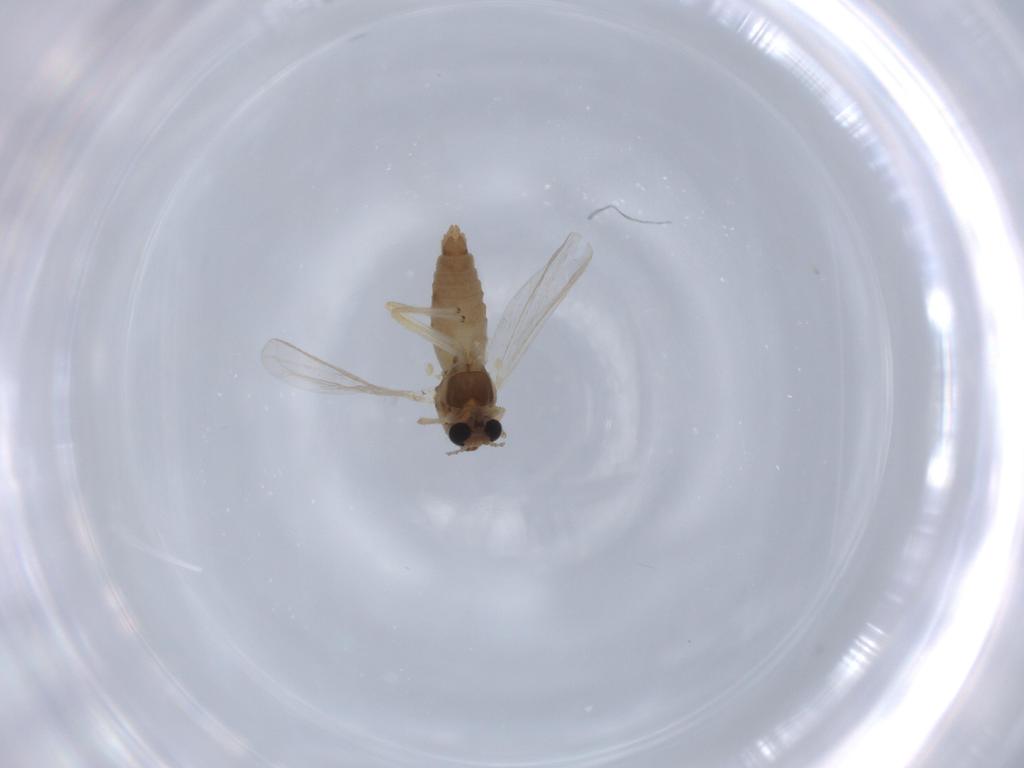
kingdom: Animalia
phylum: Arthropoda
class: Insecta
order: Diptera
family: Chironomidae
